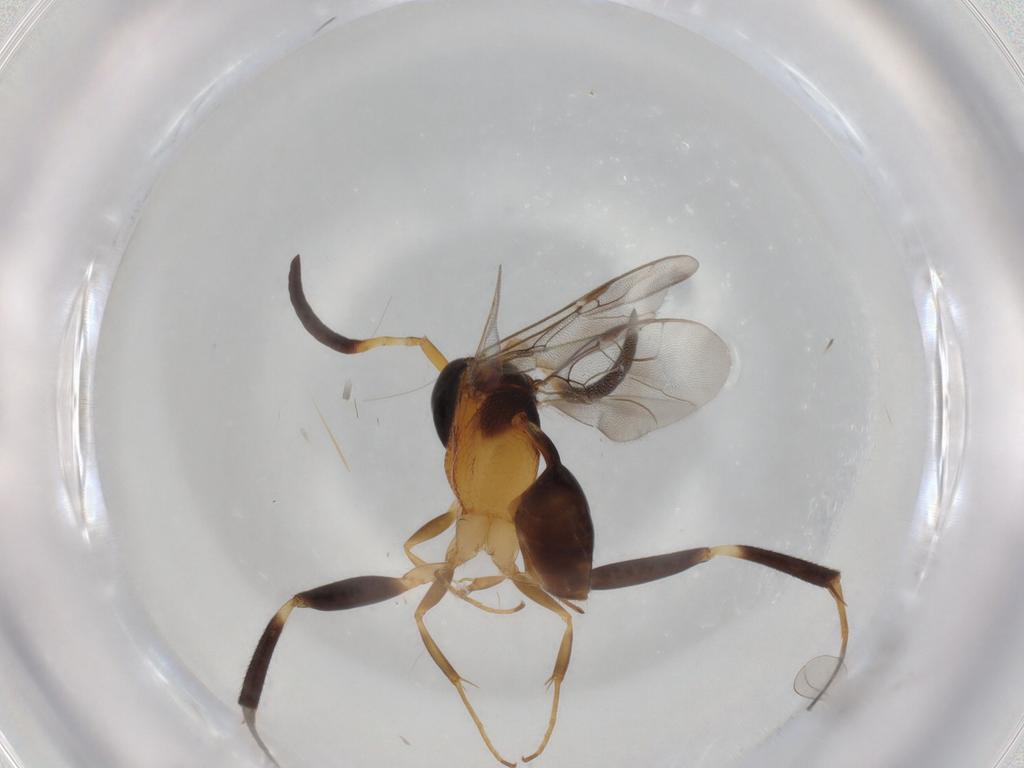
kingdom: Animalia
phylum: Arthropoda
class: Insecta
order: Hymenoptera
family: Evaniidae
